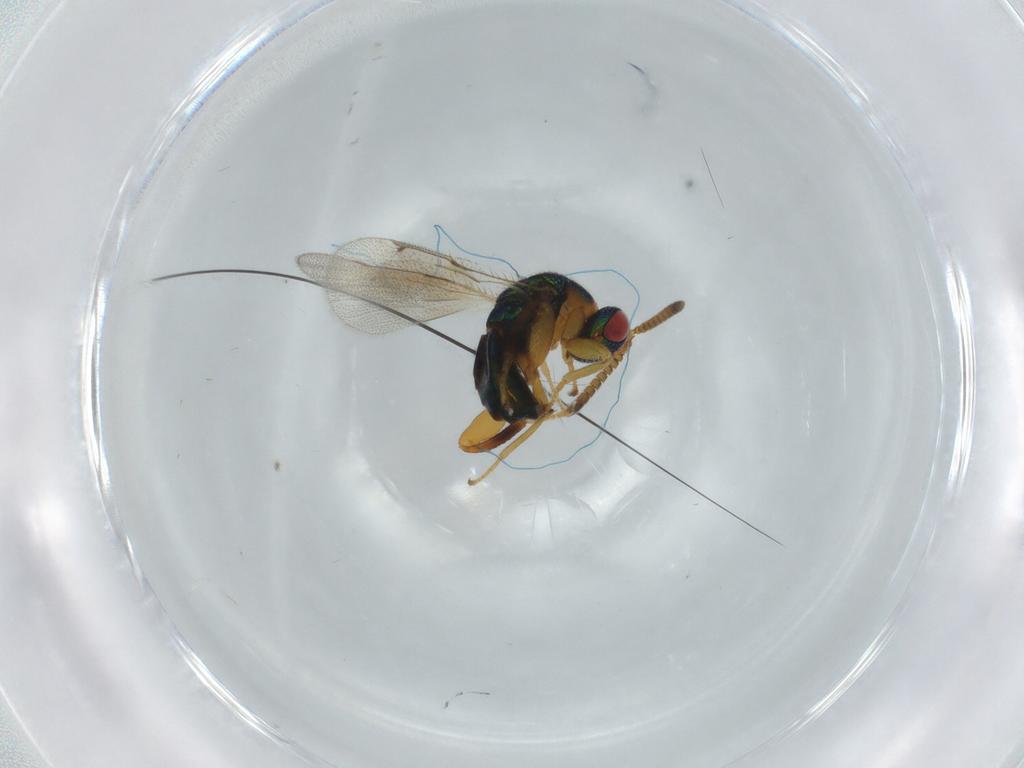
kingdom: Animalia
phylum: Arthropoda
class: Insecta
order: Hymenoptera
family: Torymidae
